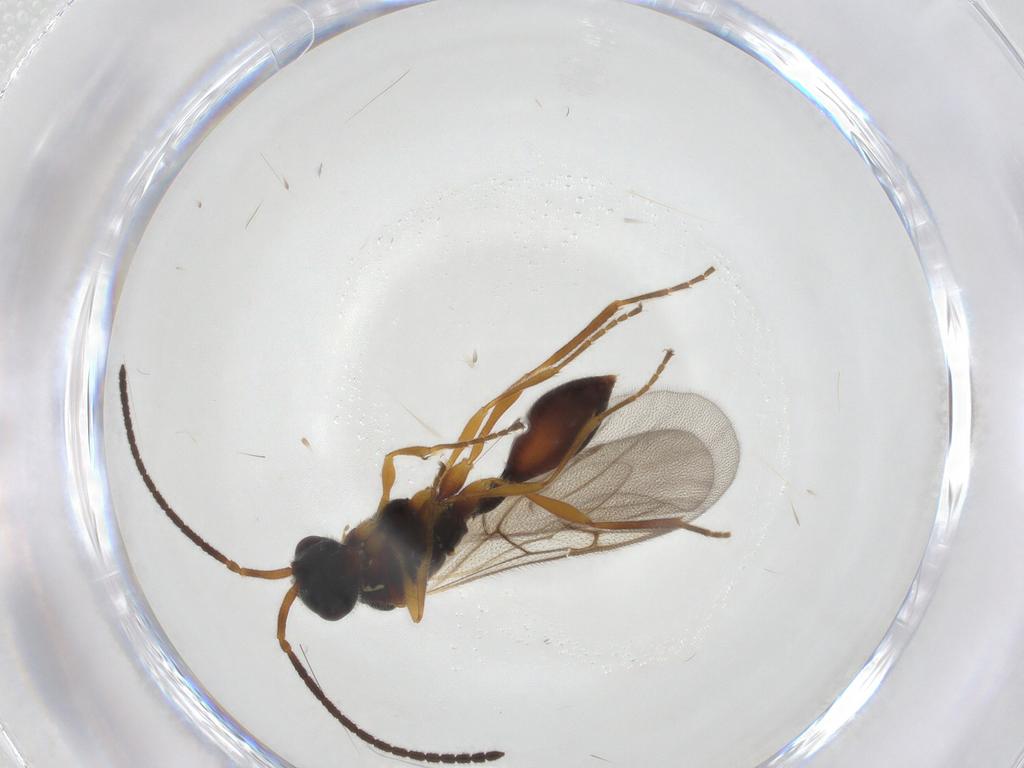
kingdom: Animalia
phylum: Arthropoda
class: Insecta
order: Hymenoptera
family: Diapriidae
